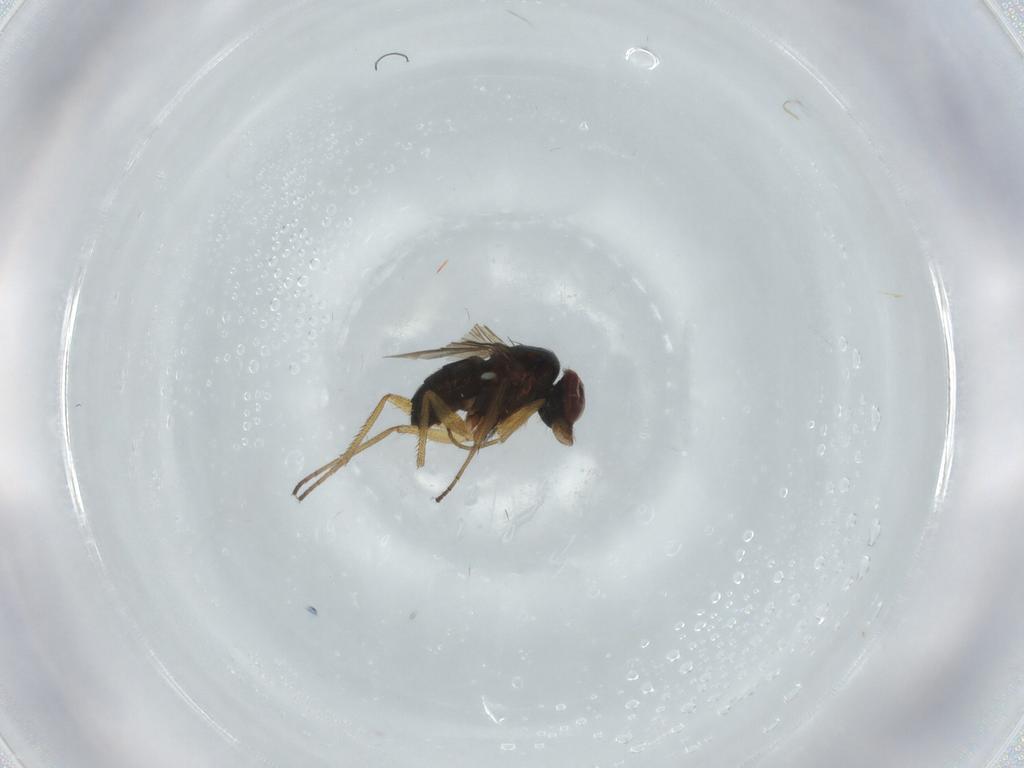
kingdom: Animalia
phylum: Arthropoda
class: Insecta
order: Diptera
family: Dolichopodidae
